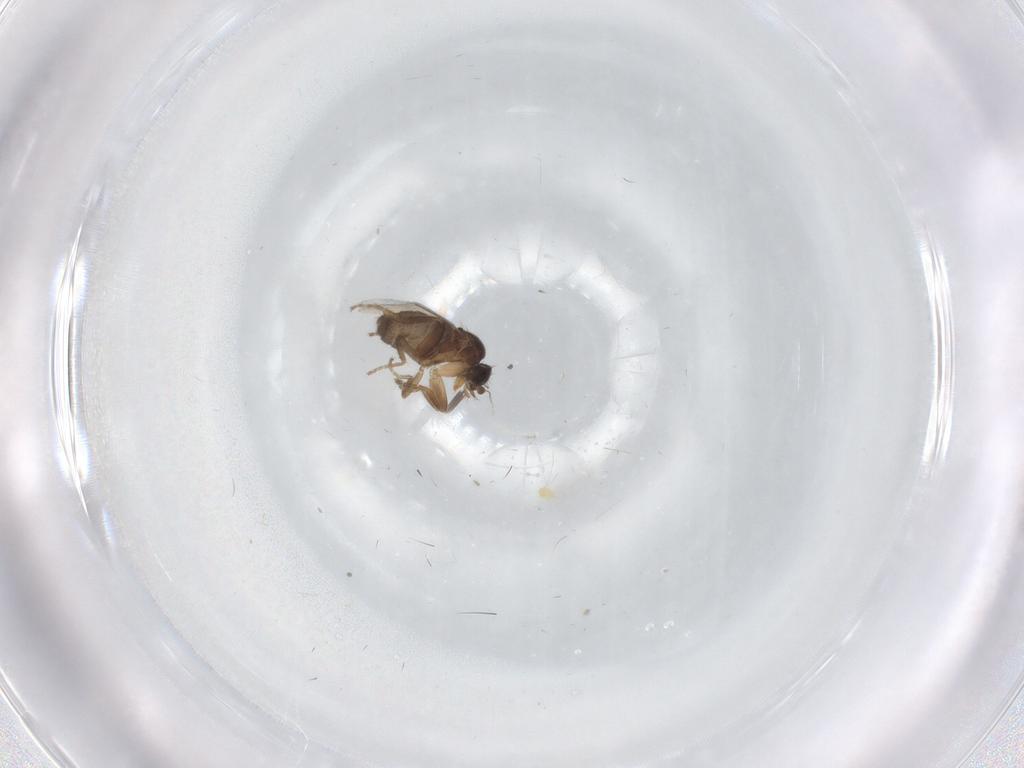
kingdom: Animalia
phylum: Arthropoda
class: Insecta
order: Diptera
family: Phoridae
